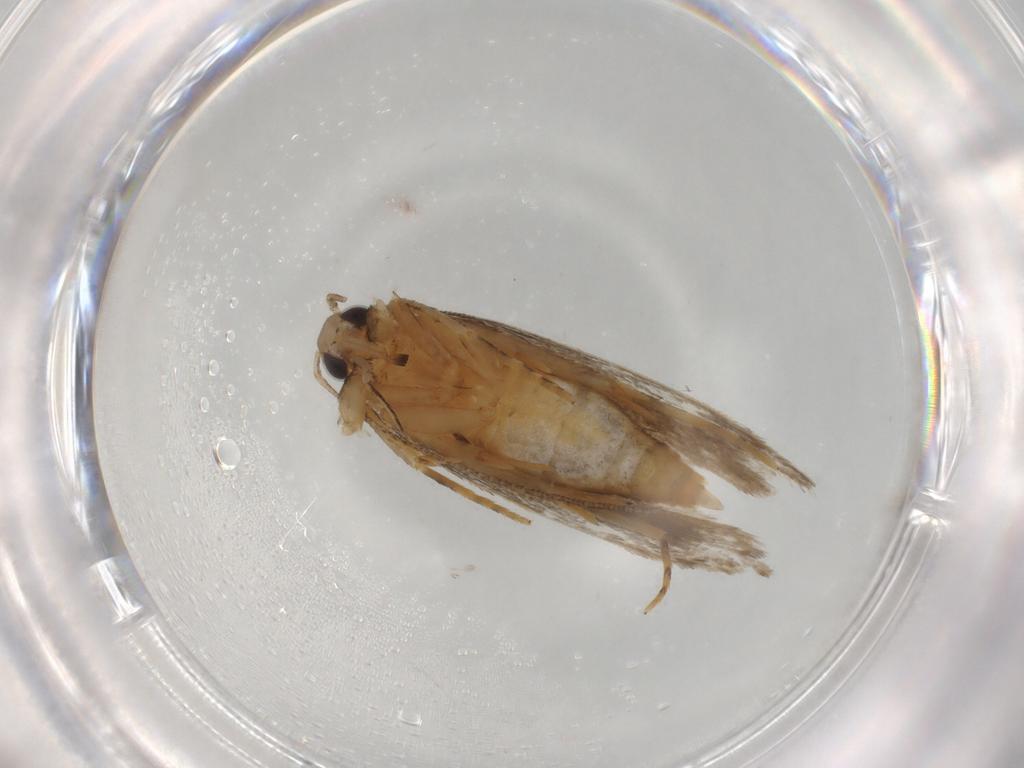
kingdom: Animalia
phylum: Arthropoda
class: Insecta
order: Lepidoptera
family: Autostichidae
